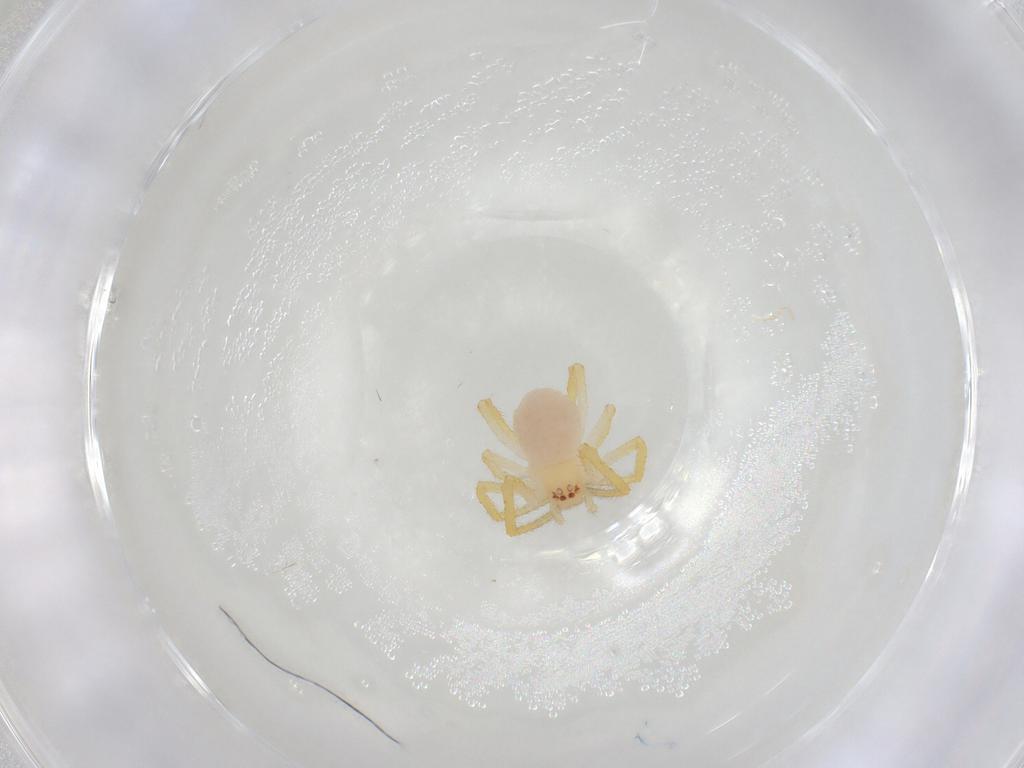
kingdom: Animalia
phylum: Arthropoda
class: Arachnida
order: Araneae
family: Theridiidae
